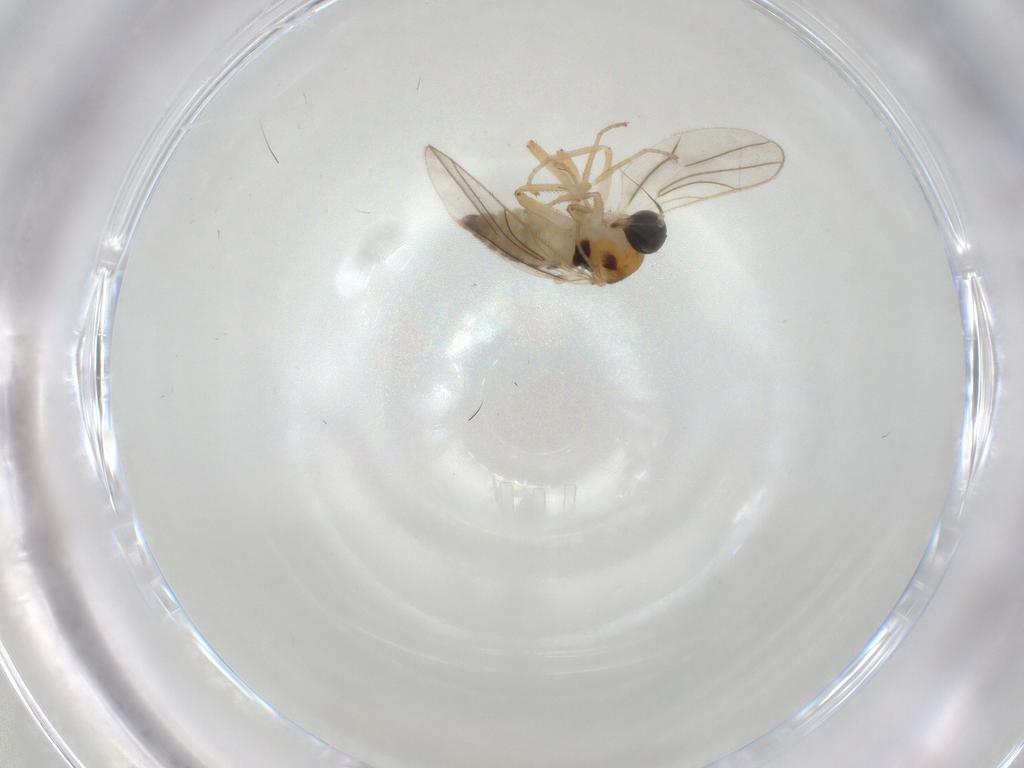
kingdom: Animalia
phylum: Arthropoda
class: Insecta
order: Diptera
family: Hybotidae
